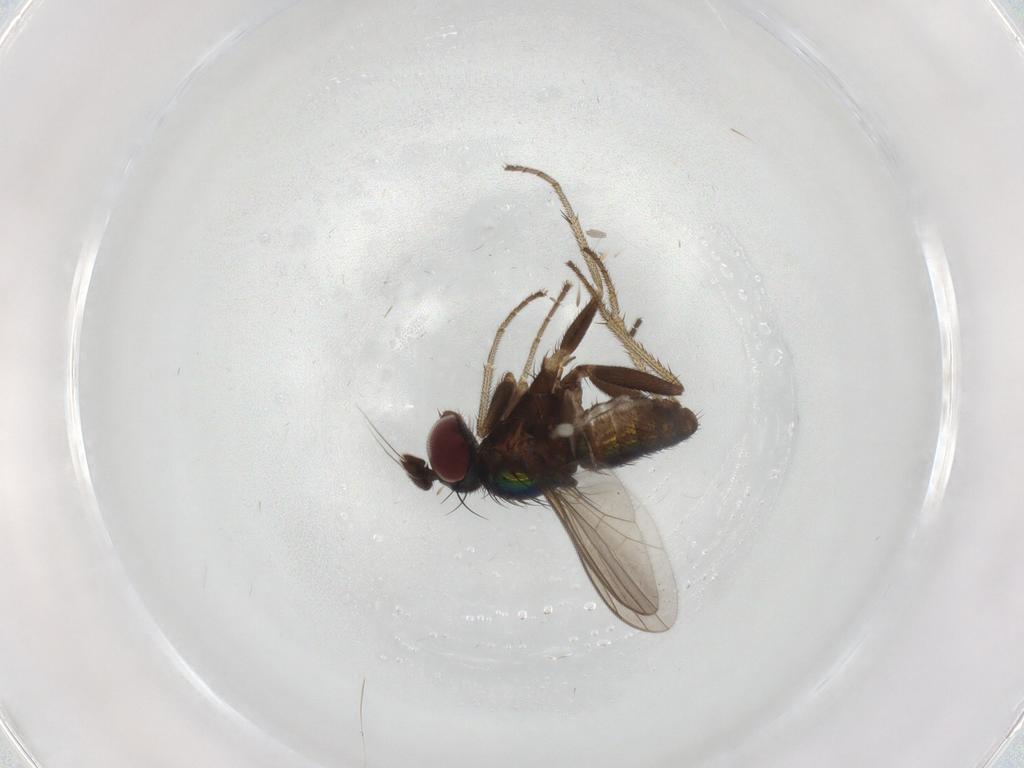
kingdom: Animalia
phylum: Arthropoda
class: Insecta
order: Diptera
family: Dolichopodidae
